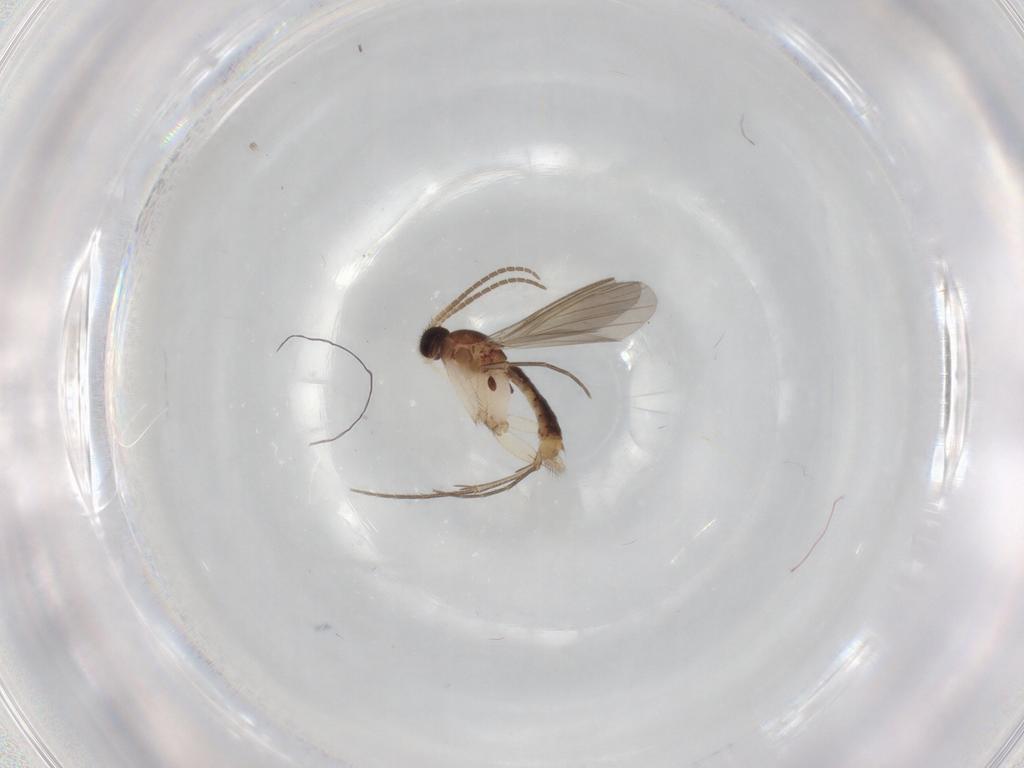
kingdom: Animalia
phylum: Arthropoda
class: Insecta
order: Diptera
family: Mycetophilidae
